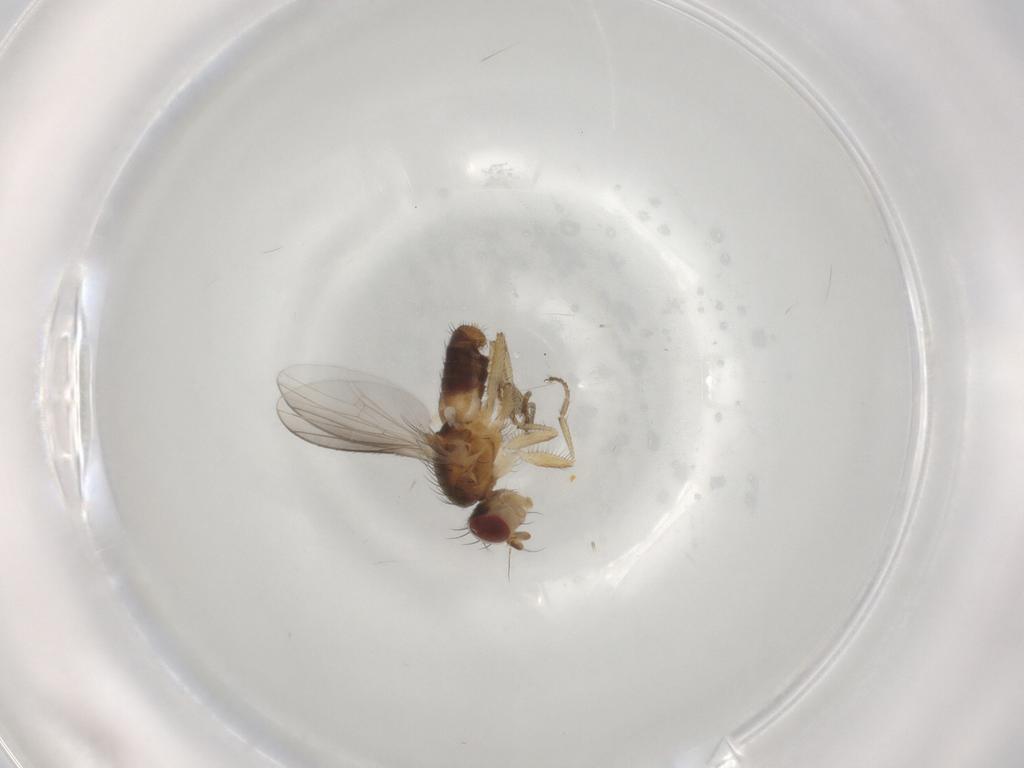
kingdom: Animalia
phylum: Arthropoda
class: Insecta
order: Diptera
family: Heleomyzidae
